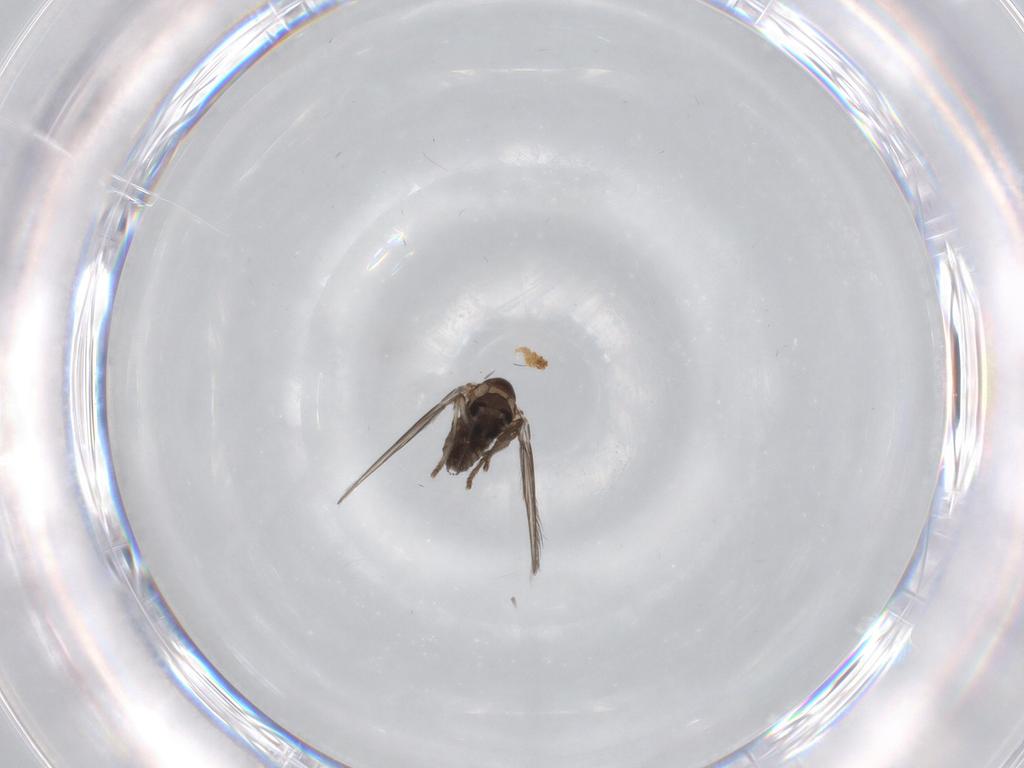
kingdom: Animalia
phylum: Arthropoda
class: Insecta
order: Diptera
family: Psychodidae
